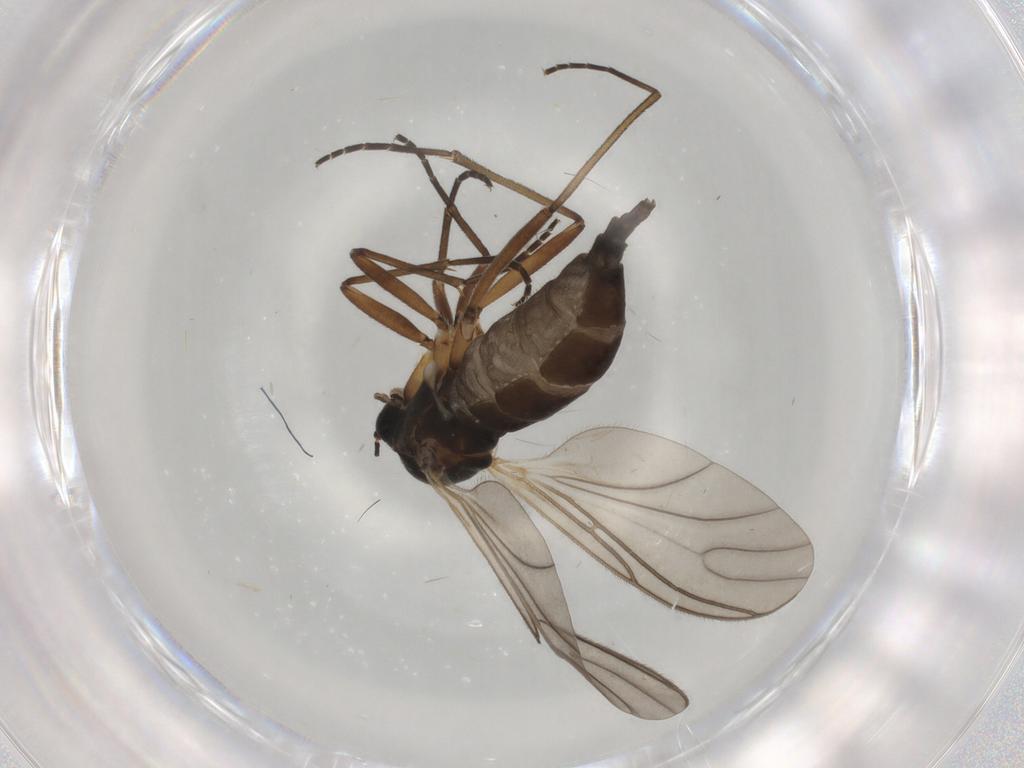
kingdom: Animalia
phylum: Arthropoda
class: Insecta
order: Diptera
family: Sciaridae
